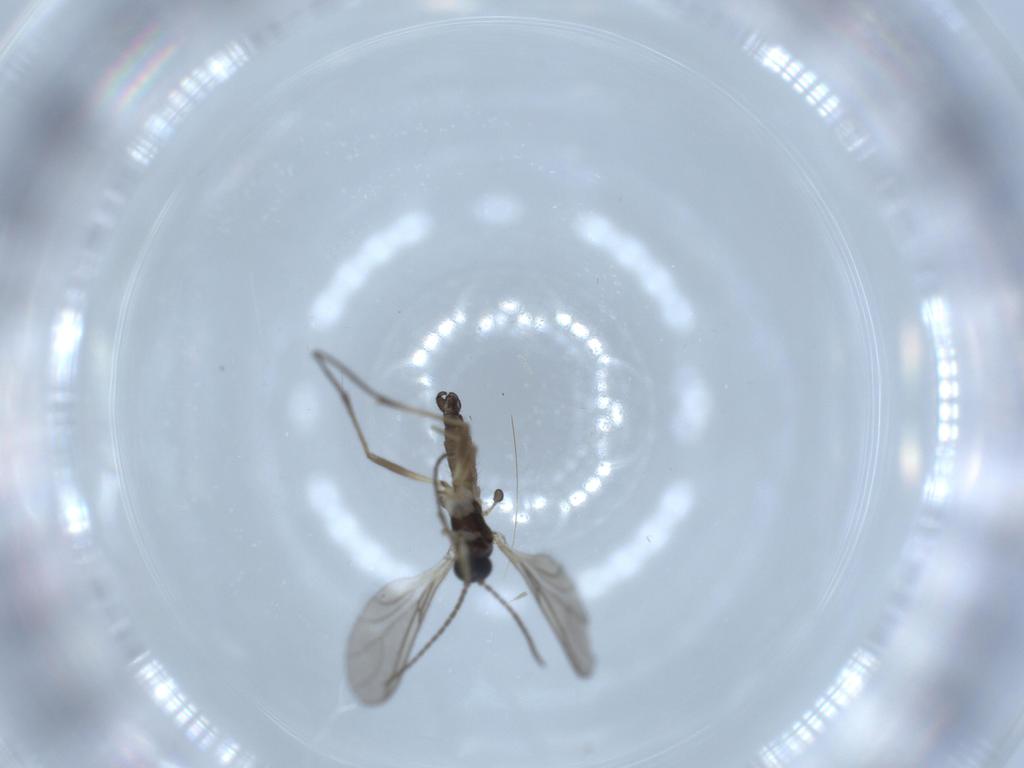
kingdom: Animalia
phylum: Arthropoda
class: Insecta
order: Diptera
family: Sciaridae
